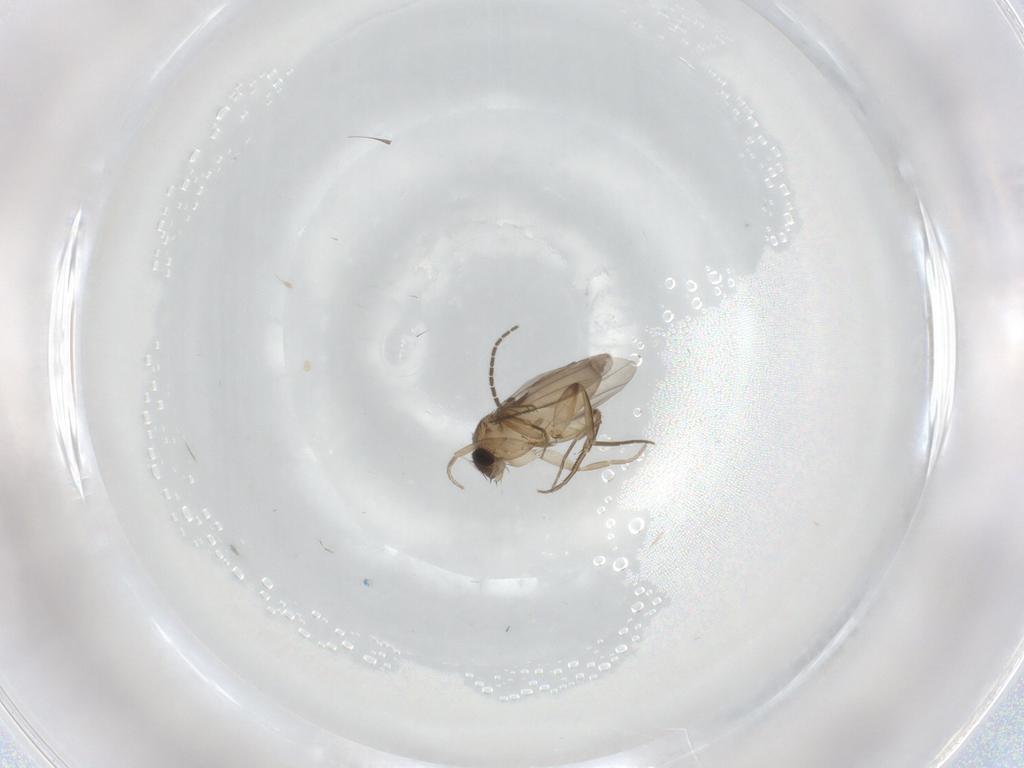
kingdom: Animalia
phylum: Arthropoda
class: Insecta
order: Diptera
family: Phoridae
